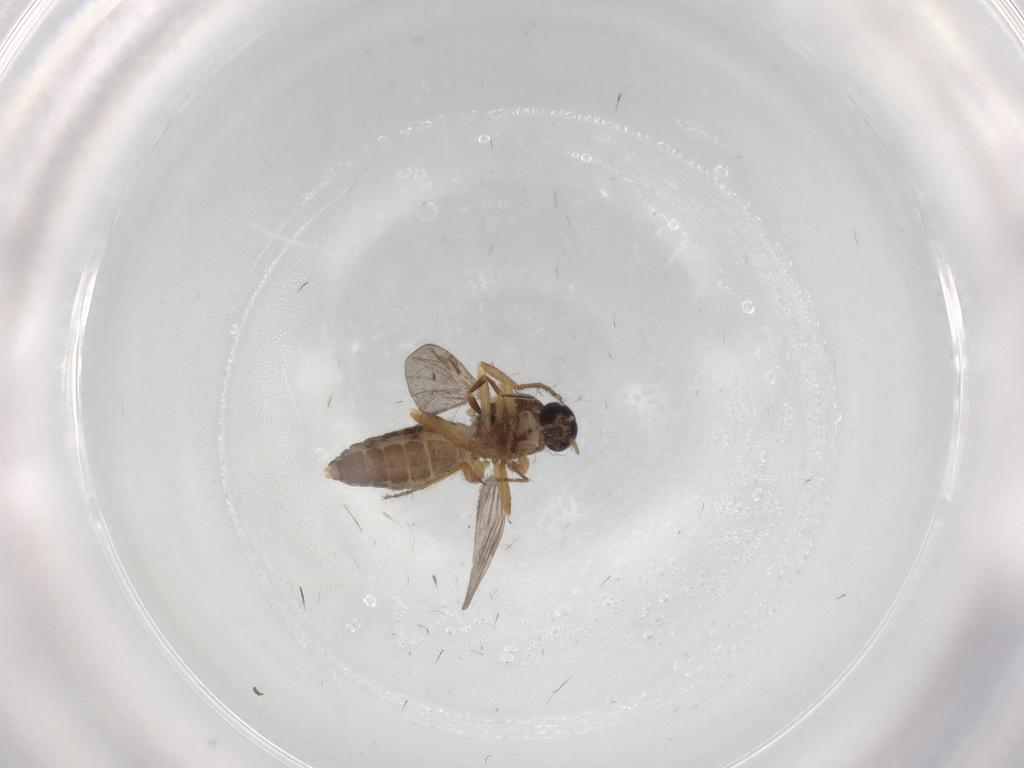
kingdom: Animalia
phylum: Arthropoda
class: Insecta
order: Diptera
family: Ceratopogonidae
